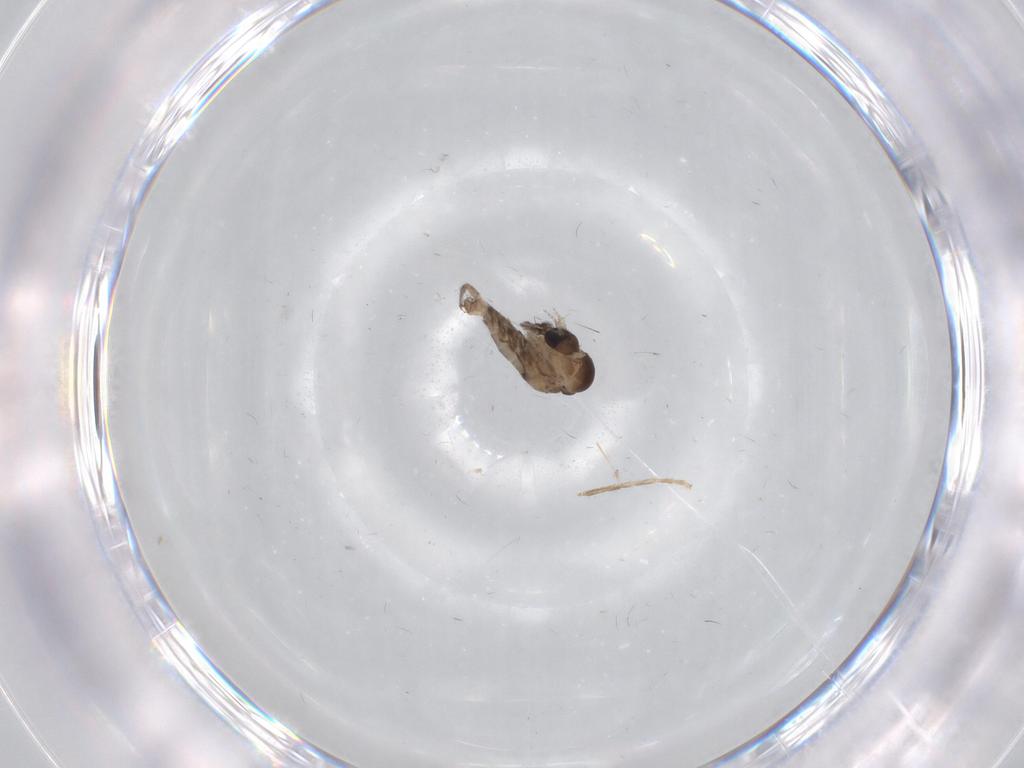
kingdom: Animalia
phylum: Arthropoda
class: Insecta
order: Diptera
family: Chironomidae
